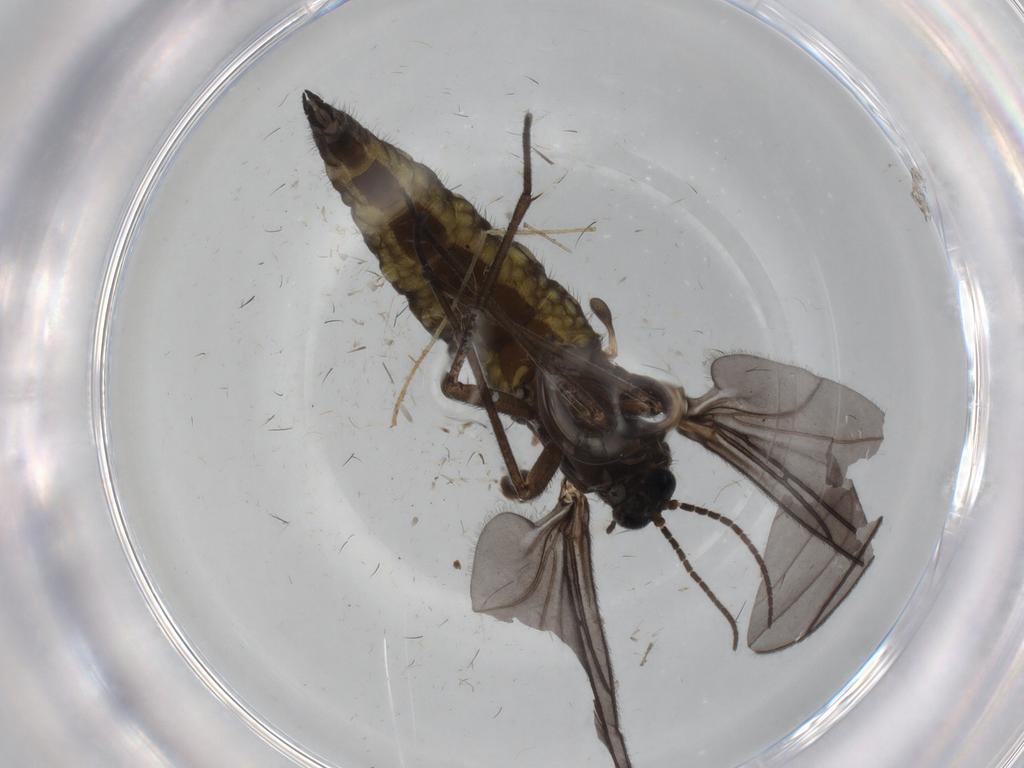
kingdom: Animalia
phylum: Arthropoda
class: Insecta
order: Diptera
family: Sciaridae
